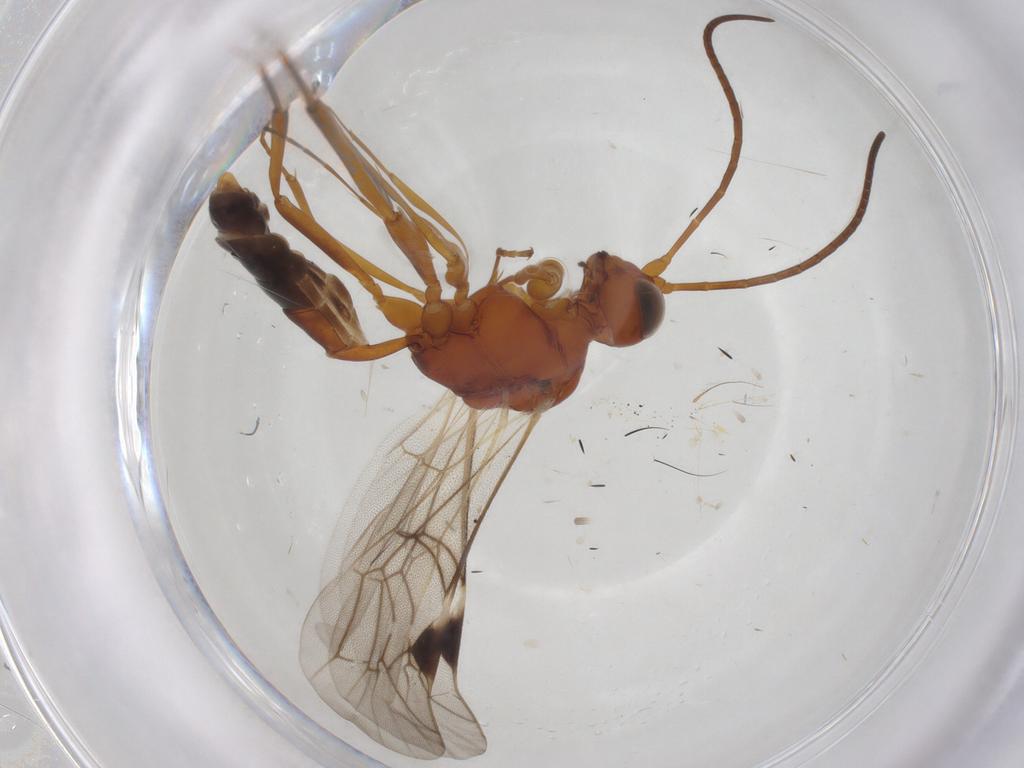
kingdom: Animalia
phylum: Arthropoda
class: Insecta
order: Hymenoptera
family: Ichneumonidae
